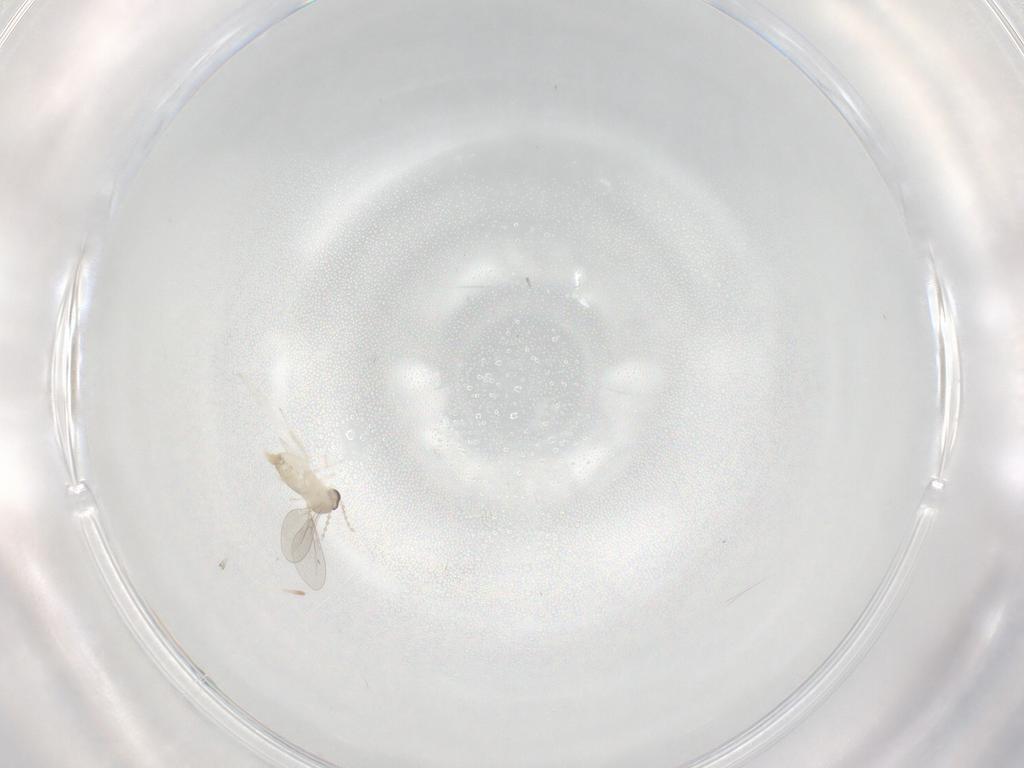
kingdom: Animalia
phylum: Arthropoda
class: Insecta
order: Diptera
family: Cecidomyiidae
